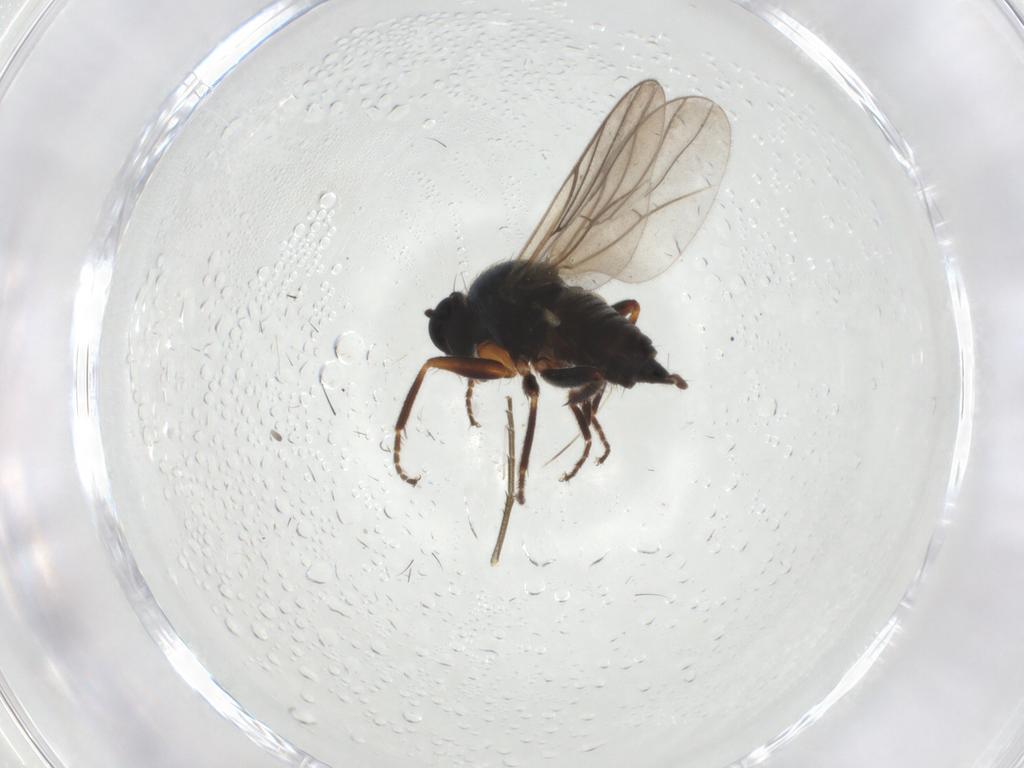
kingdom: Animalia
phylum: Arthropoda
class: Insecta
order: Diptera
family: Hybotidae
